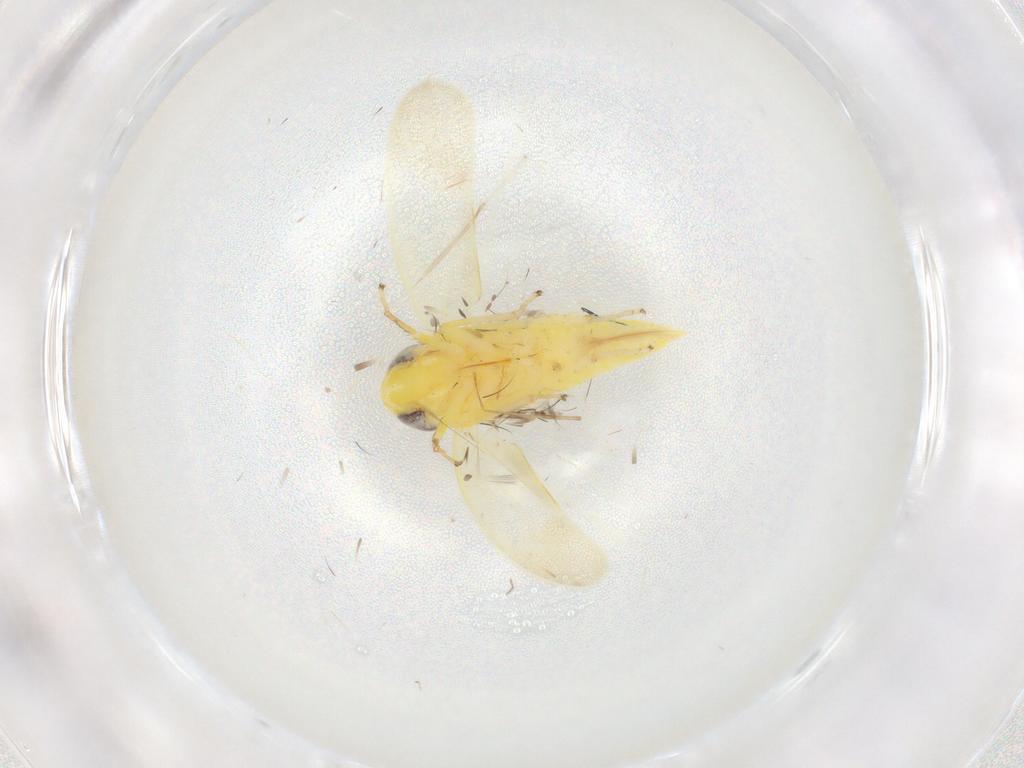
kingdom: Animalia
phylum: Arthropoda
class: Insecta
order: Hemiptera
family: Cicadellidae
